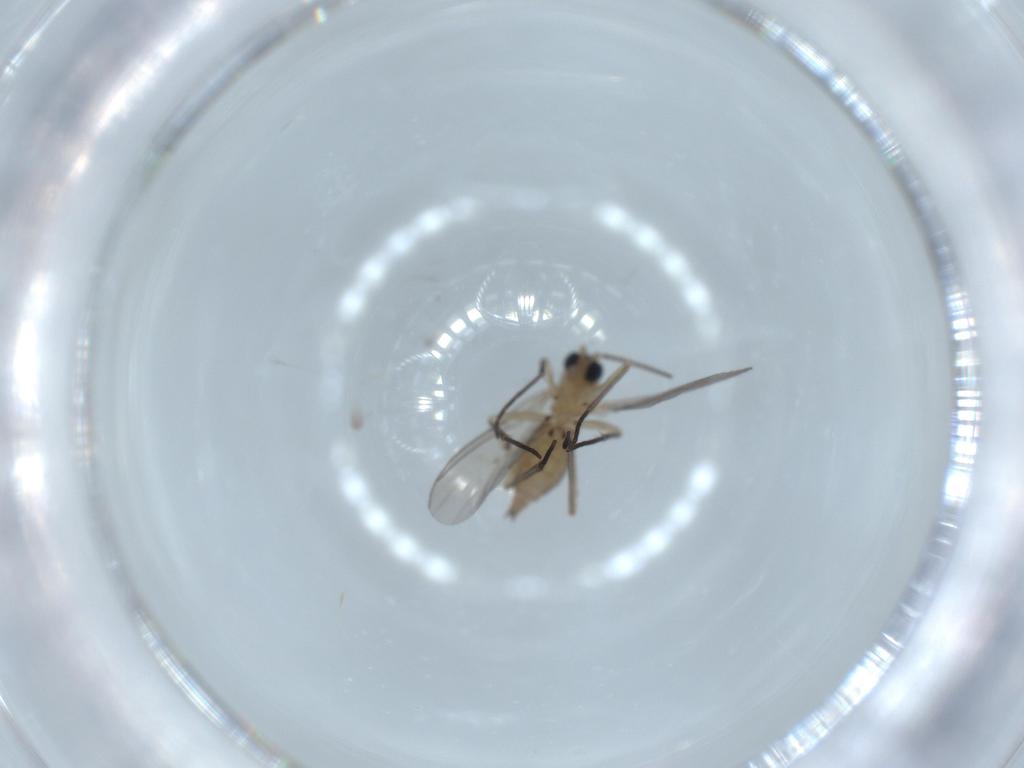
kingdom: Animalia
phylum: Arthropoda
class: Insecta
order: Diptera
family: Sciaridae
